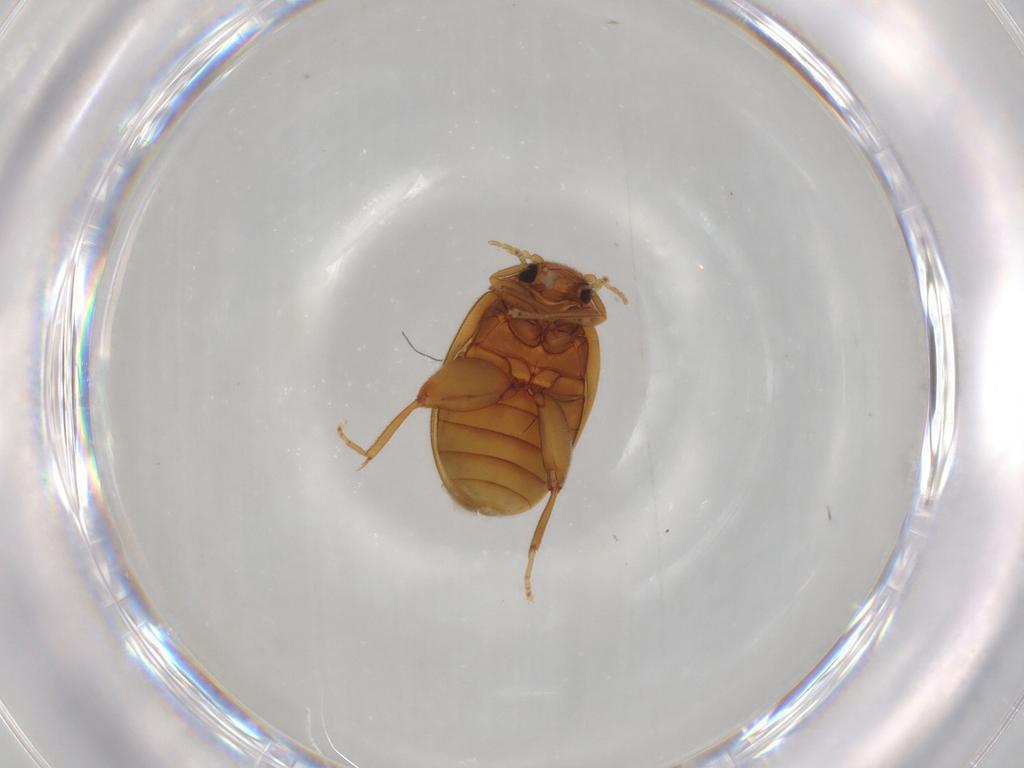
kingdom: Animalia
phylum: Arthropoda
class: Insecta
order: Coleoptera
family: Scirtidae
